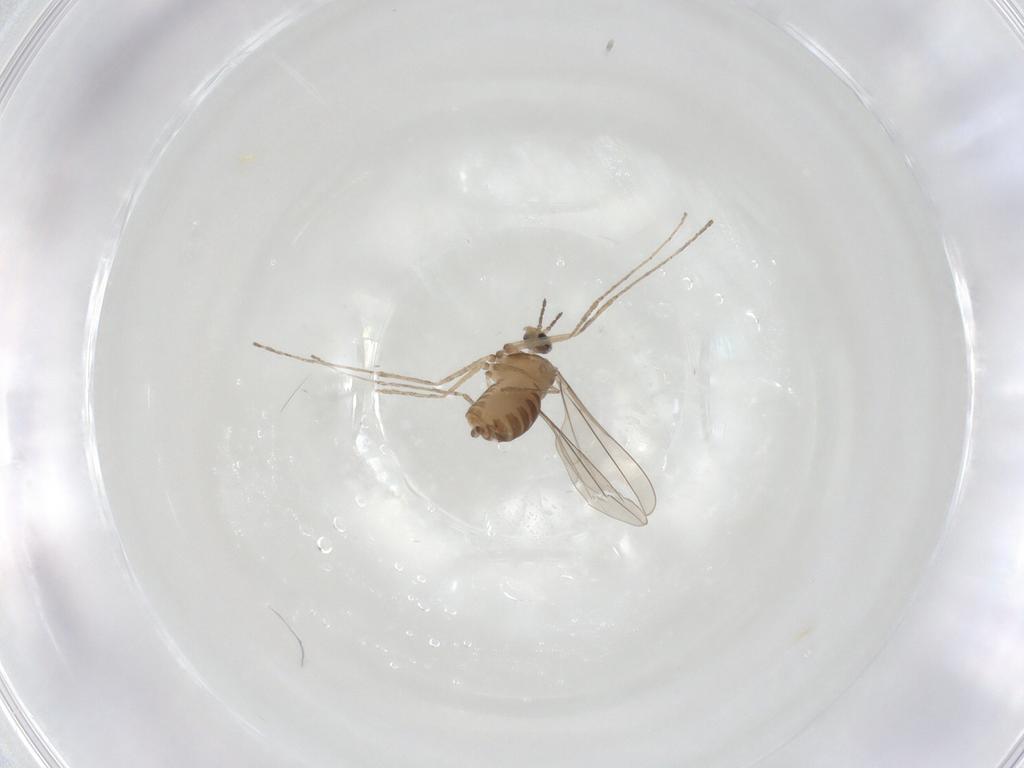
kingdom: Animalia
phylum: Arthropoda
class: Insecta
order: Diptera
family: Cecidomyiidae
